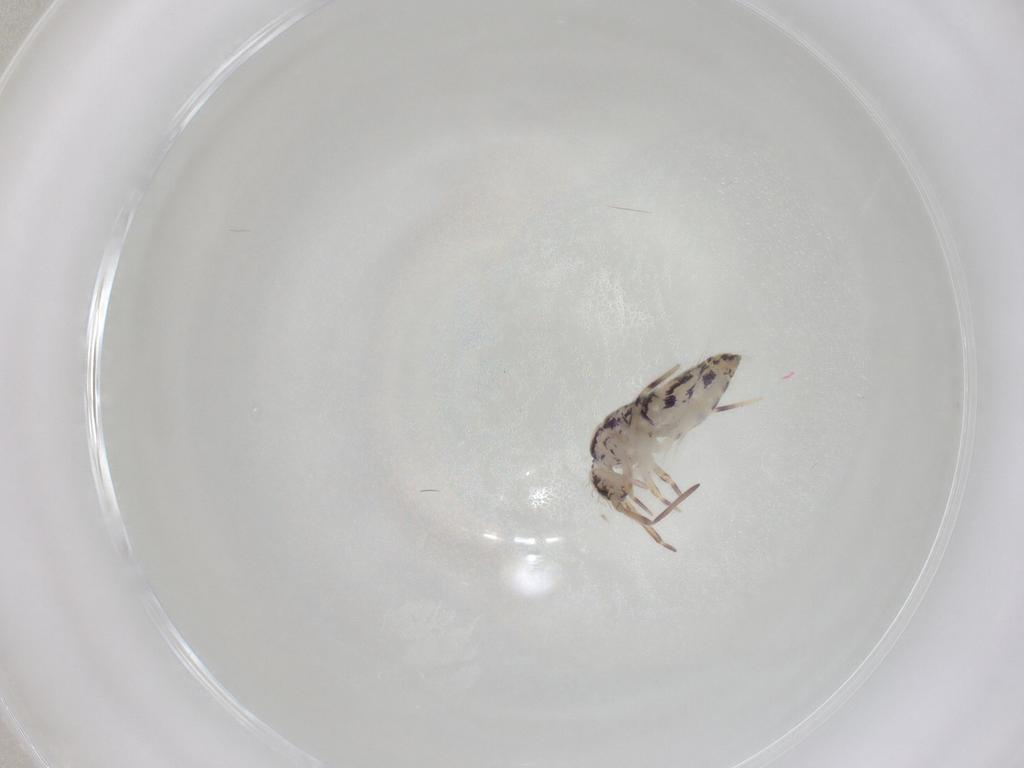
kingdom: Animalia
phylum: Arthropoda
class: Collembola
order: Entomobryomorpha
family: Entomobryidae
